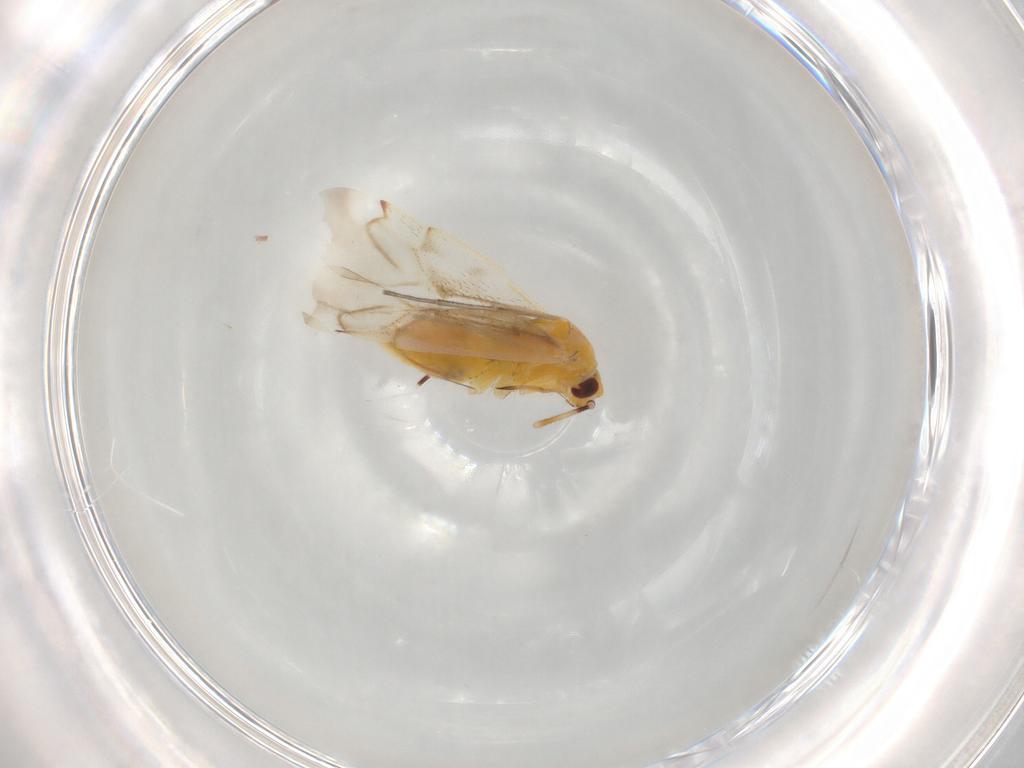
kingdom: Animalia
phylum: Arthropoda
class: Insecta
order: Hemiptera
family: Miridae
